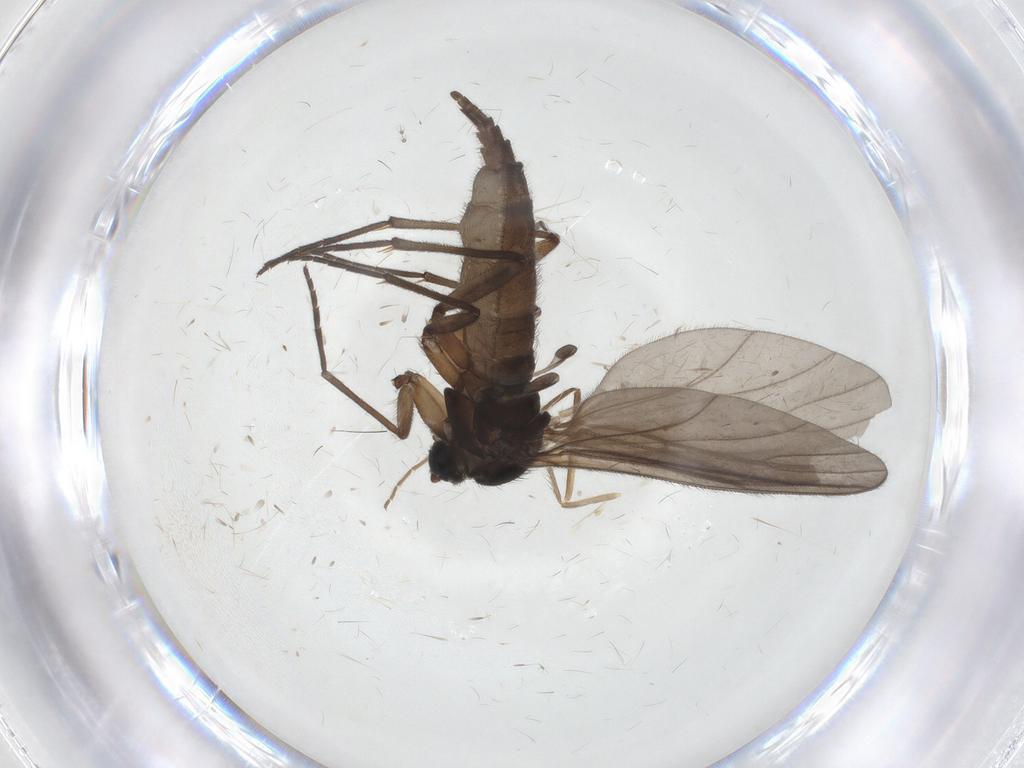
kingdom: Animalia
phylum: Arthropoda
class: Insecta
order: Diptera
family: Sciaridae
